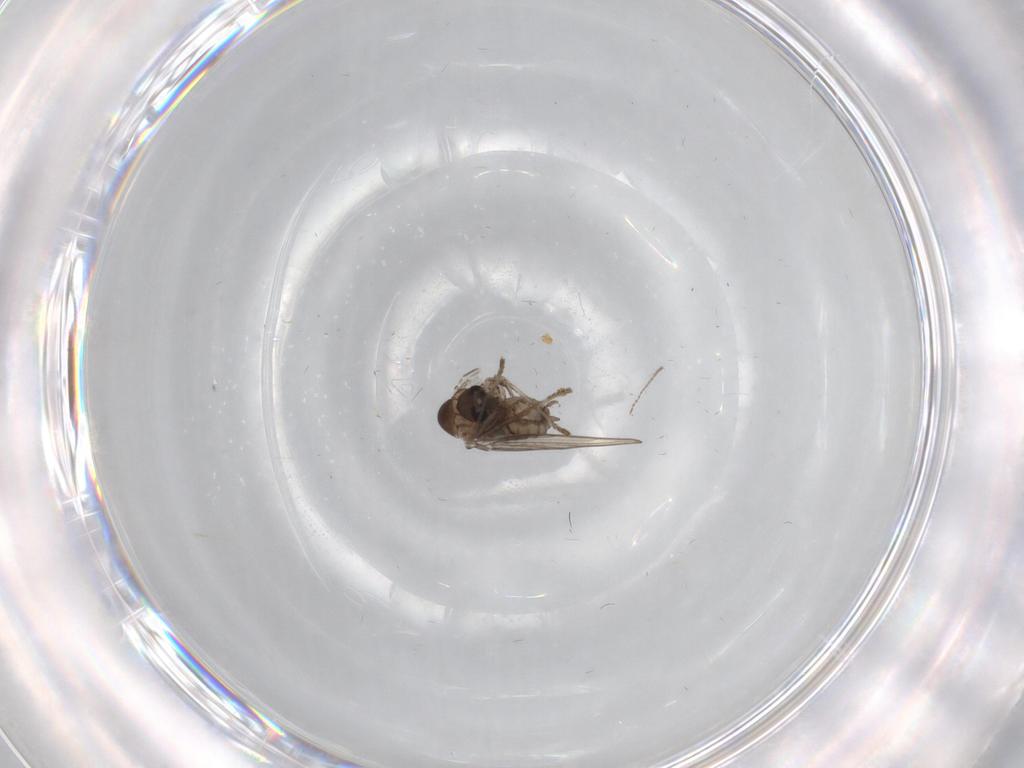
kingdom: Animalia
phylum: Arthropoda
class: Insecta
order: Diptera
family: Psychodidae
